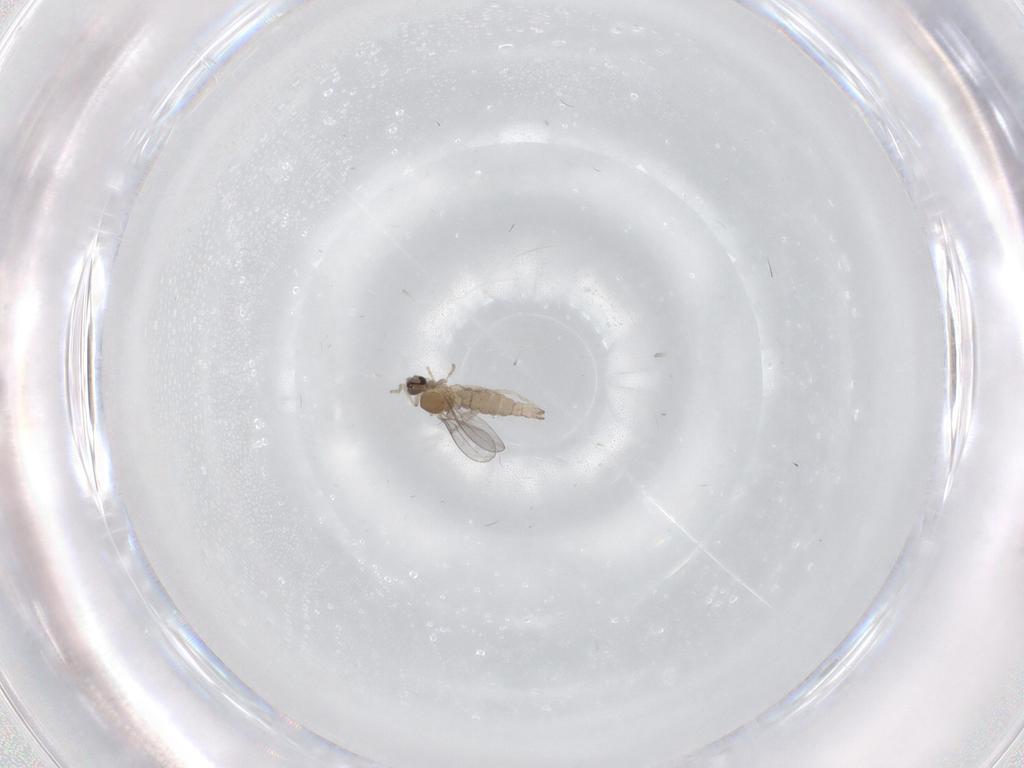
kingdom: Animalia
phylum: Arthropoda
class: Insecta
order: Diptera
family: Cecidomyiidae
